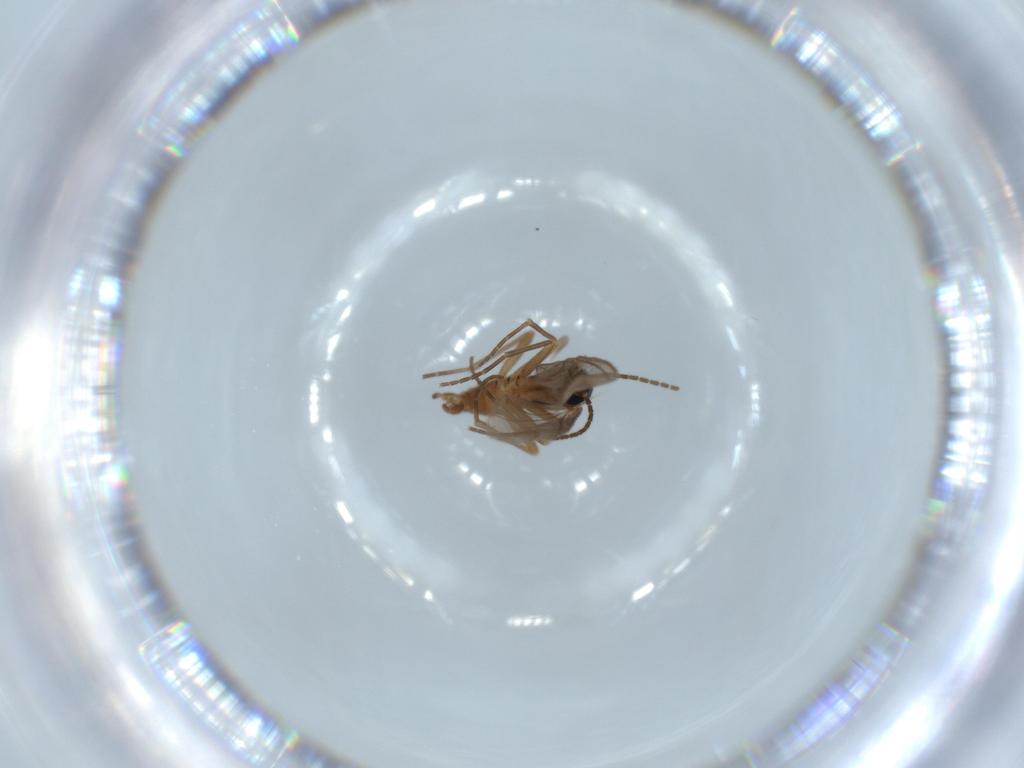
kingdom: Animalia
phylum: Arthropoda
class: Insecta
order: Diptera
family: Sciaridae
